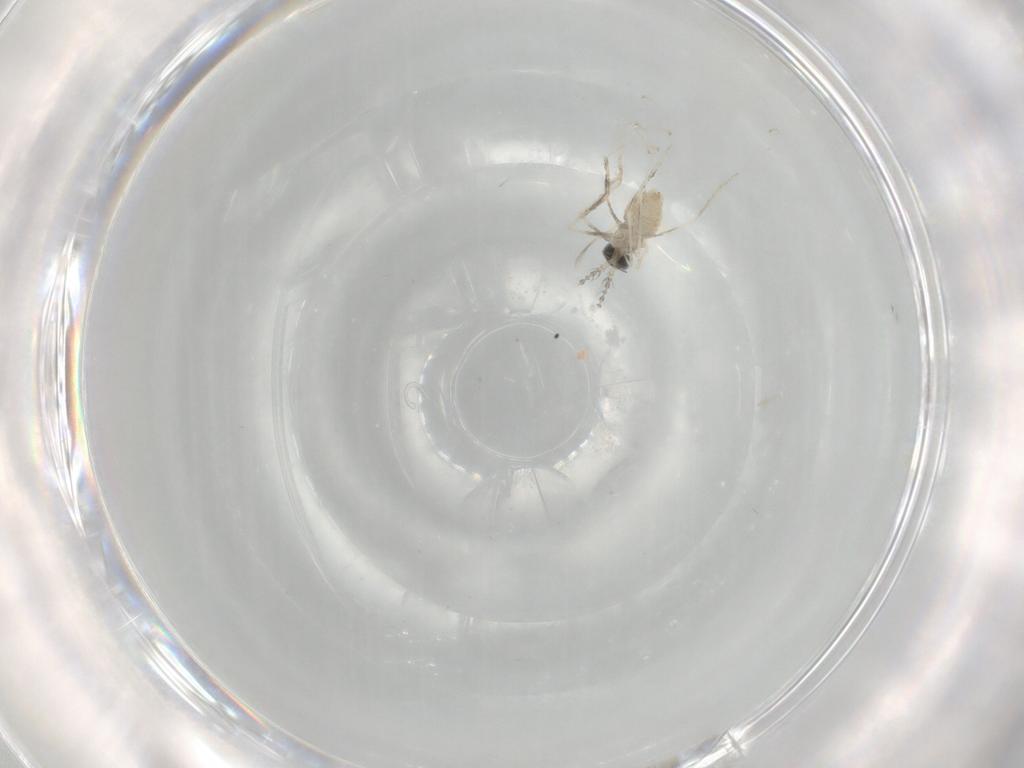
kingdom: Animalia
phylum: Arthropoda
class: Insecta
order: Diptera
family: Cecidomyiidae
